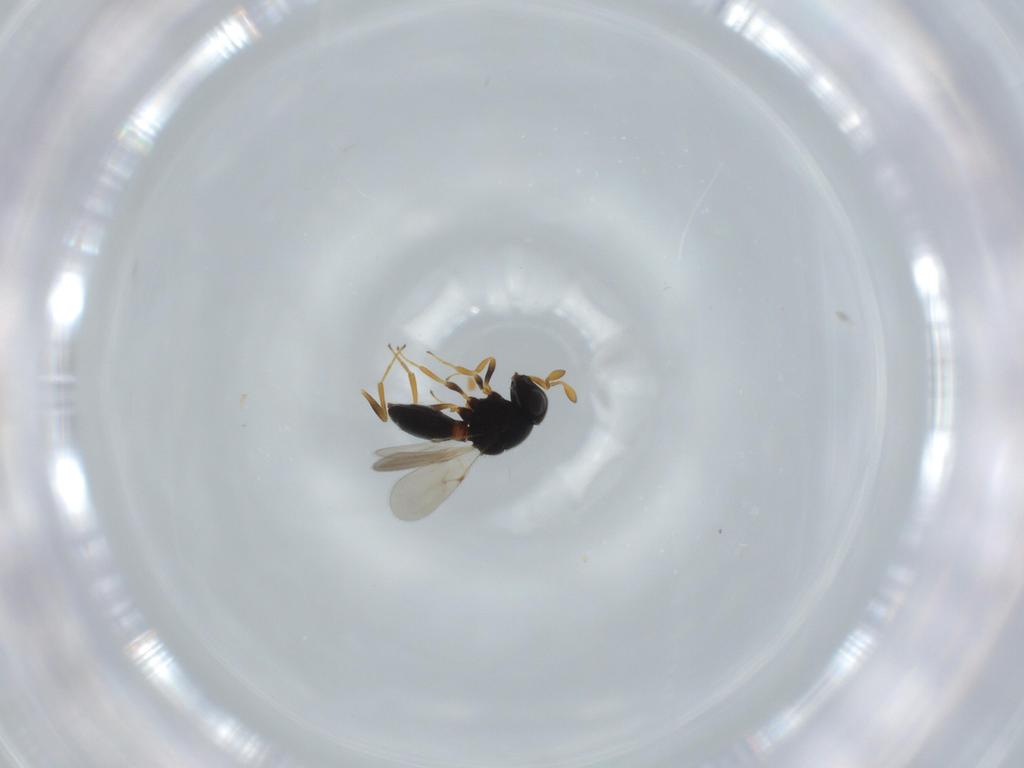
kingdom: Animalia
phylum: Arthropoda
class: Insecta
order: Hymenoptera
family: Scelionidae
